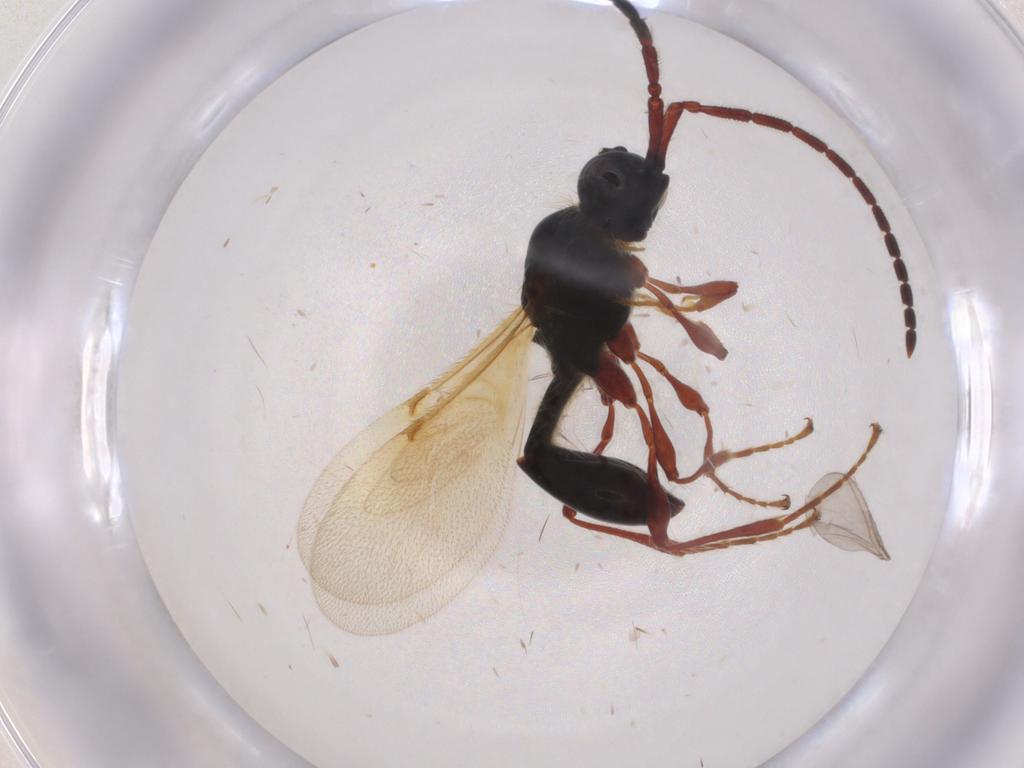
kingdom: Animalia
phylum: Arthropoda
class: Insecta
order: Hymenoptera
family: Diapriidae
